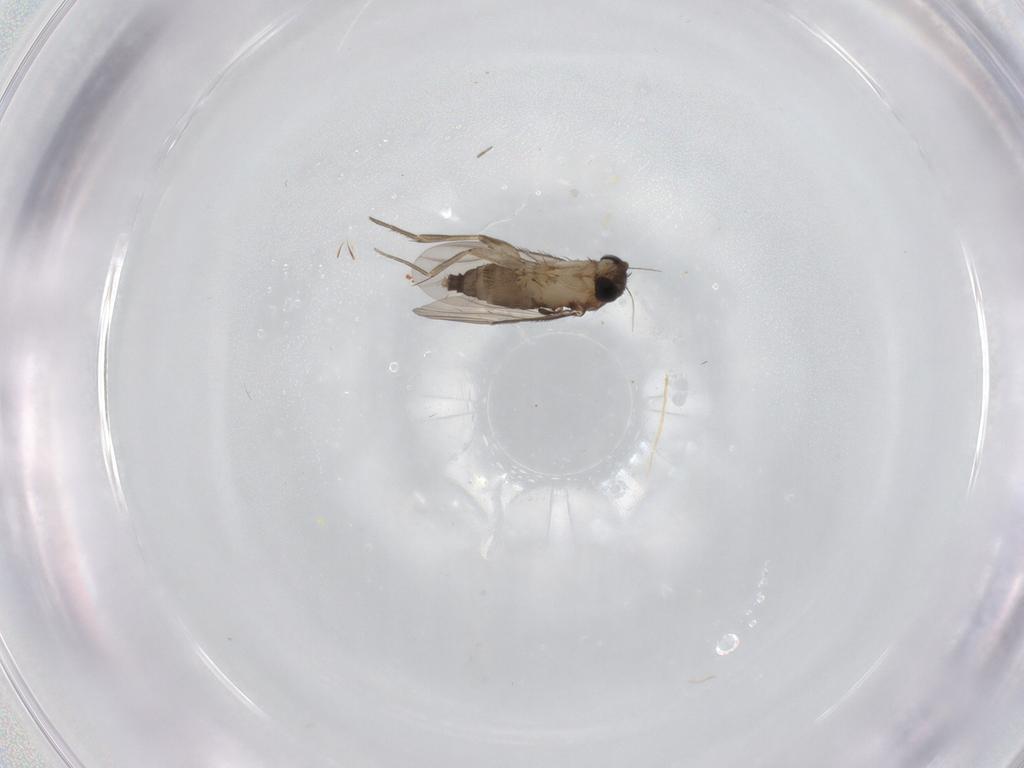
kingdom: Animalia
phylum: Arthropoda
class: Insecta
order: Diptera
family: Phoridae
